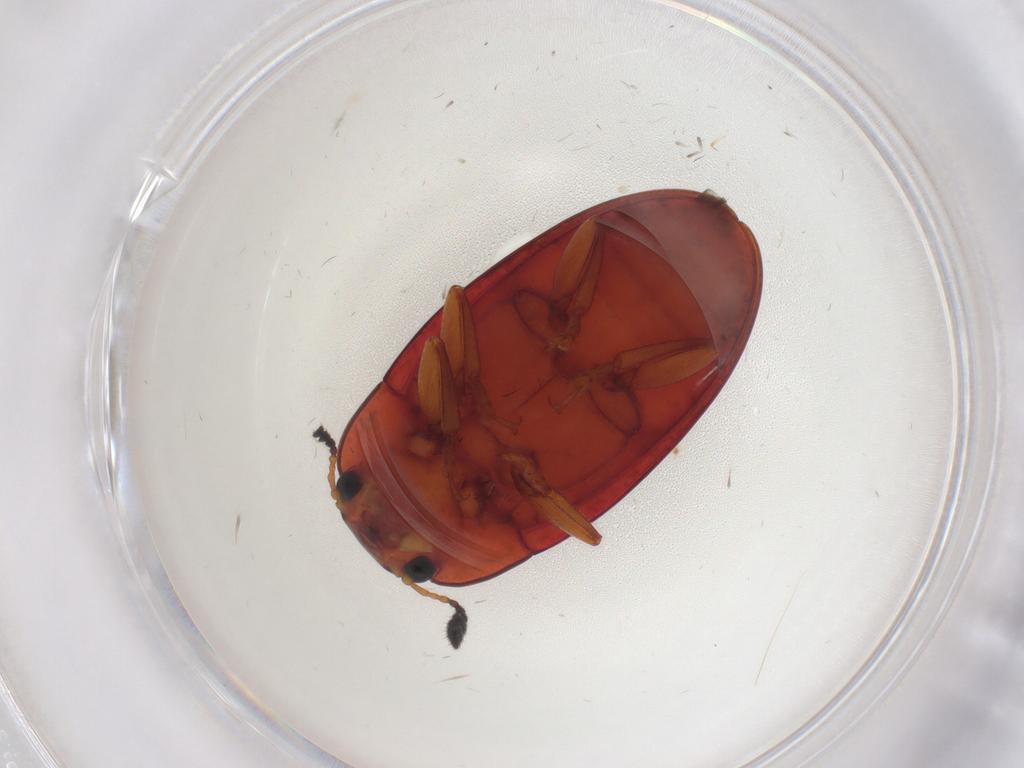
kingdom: Animalia
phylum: Arthropoda
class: Insecta
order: Coleoptera
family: Erotylidae
